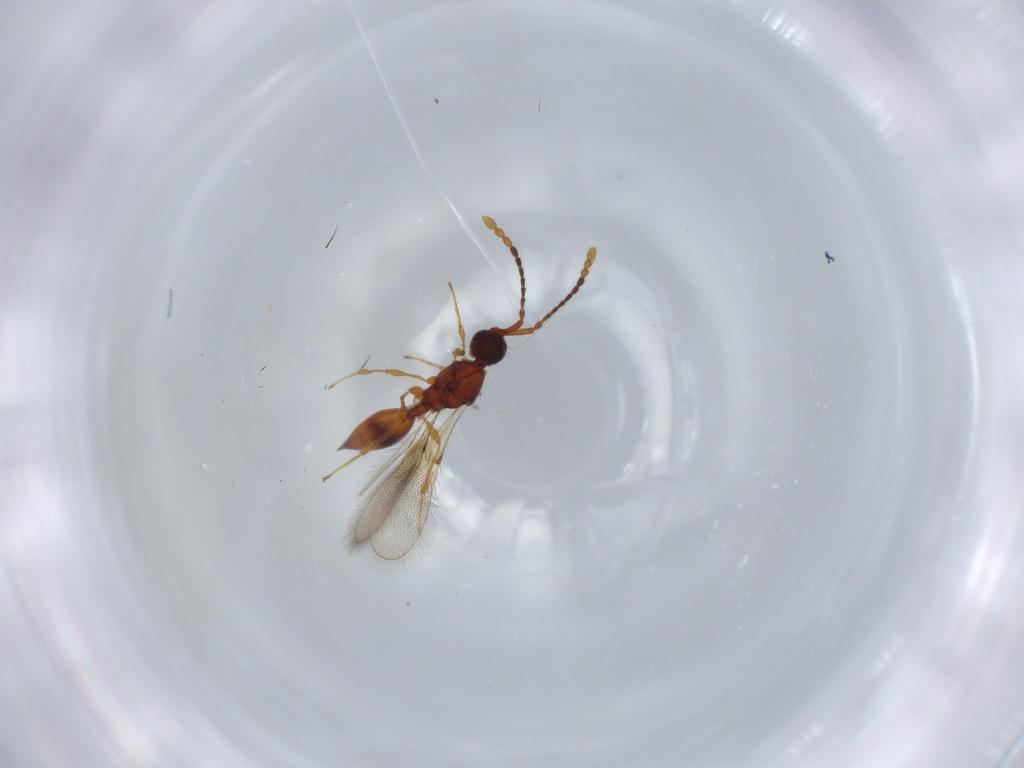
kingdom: Animalia
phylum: Arthropoda
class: Insecta
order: Hymenoptera
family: Diapriidae
